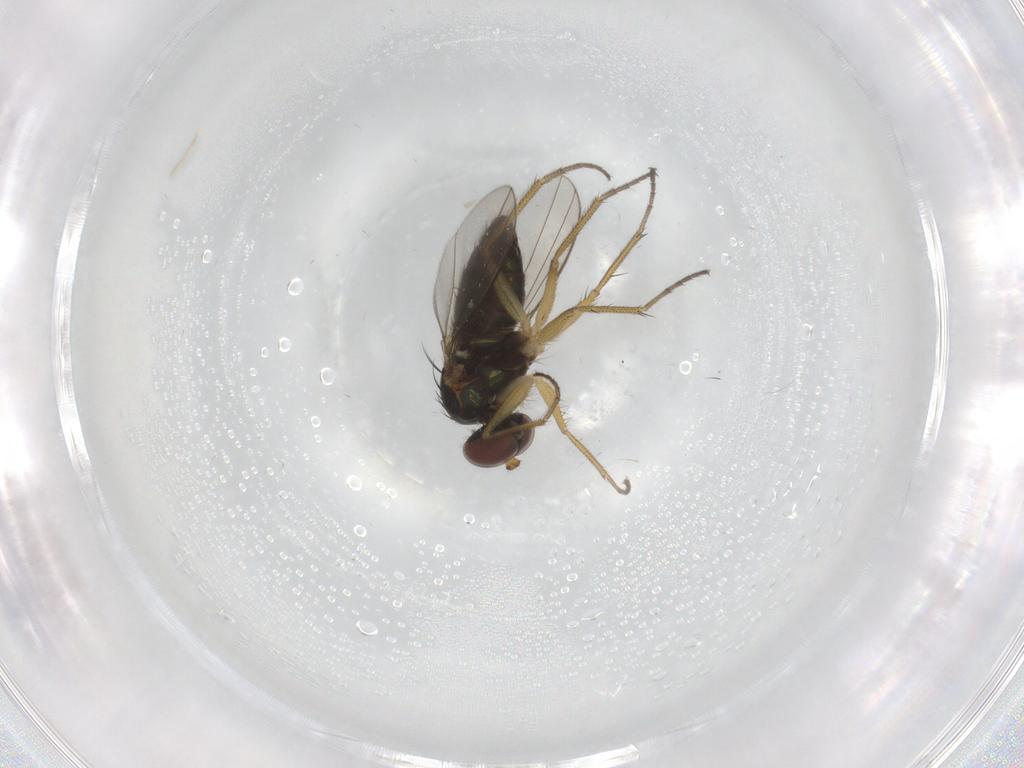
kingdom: Animalia
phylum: Arthropoda
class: Insecta
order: Diptera
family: Dolichopodidae
